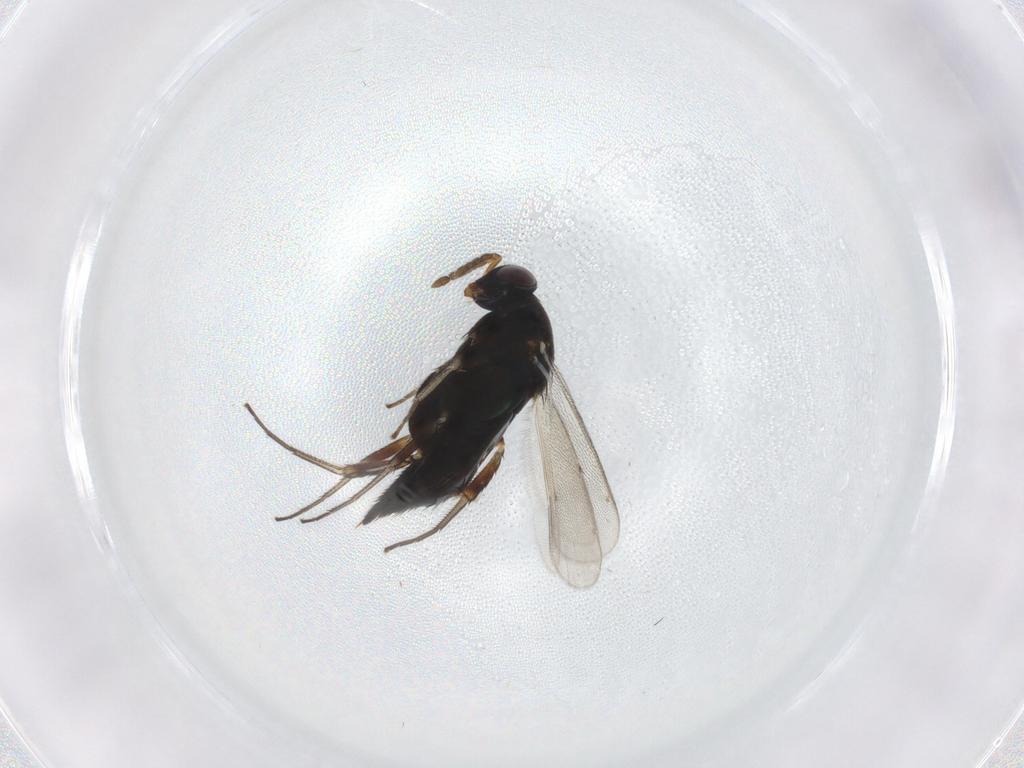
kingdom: Animalia
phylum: Arthropoda
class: Insecta
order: Hymenoptera
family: Eulophidae
